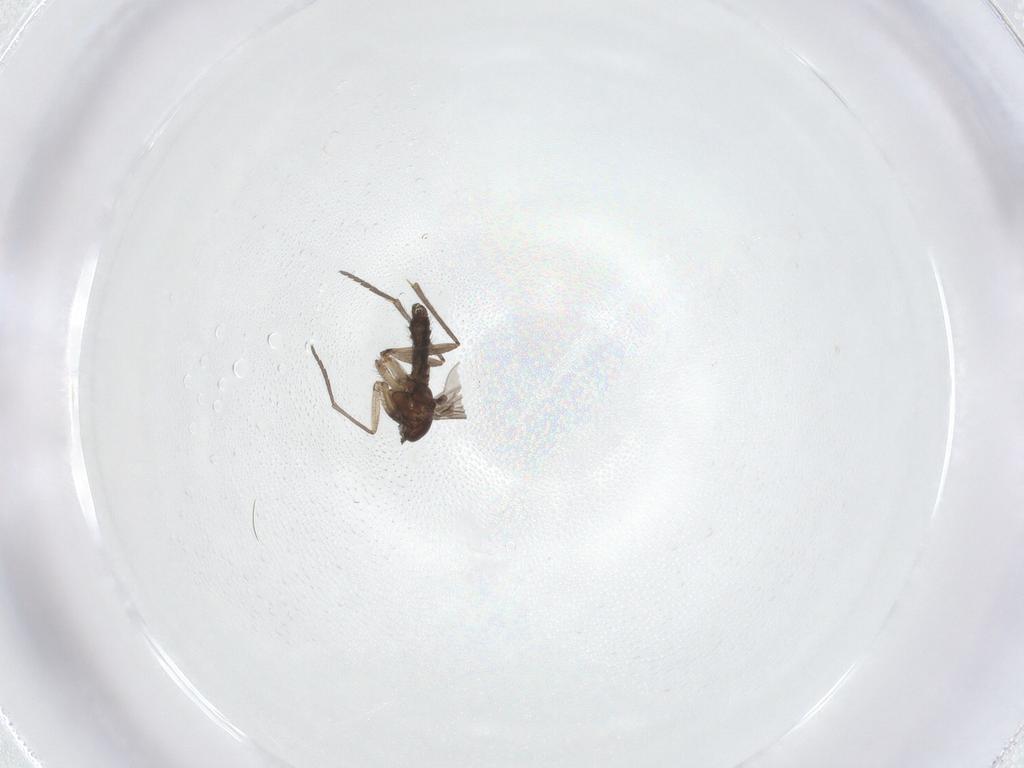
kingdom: Animalia
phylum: Arthropoda
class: Insecta
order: Diptera
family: Sciaridae
